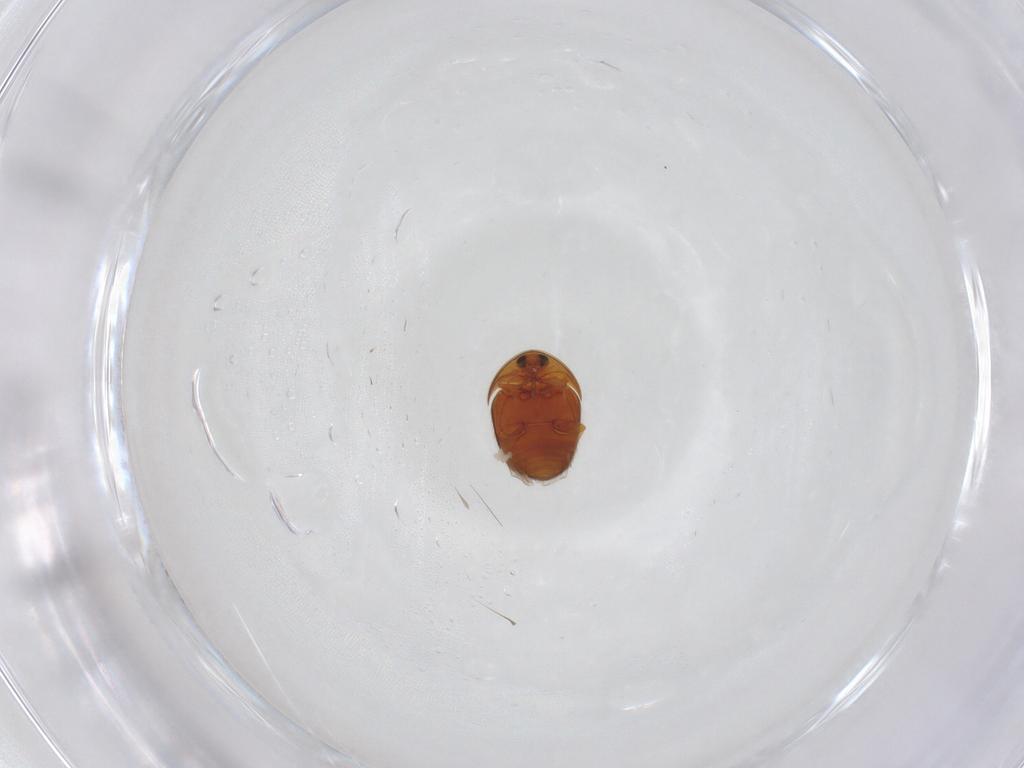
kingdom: Animalia
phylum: Arthropoda
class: Insecta
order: Coleoptera
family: Corylophidae
